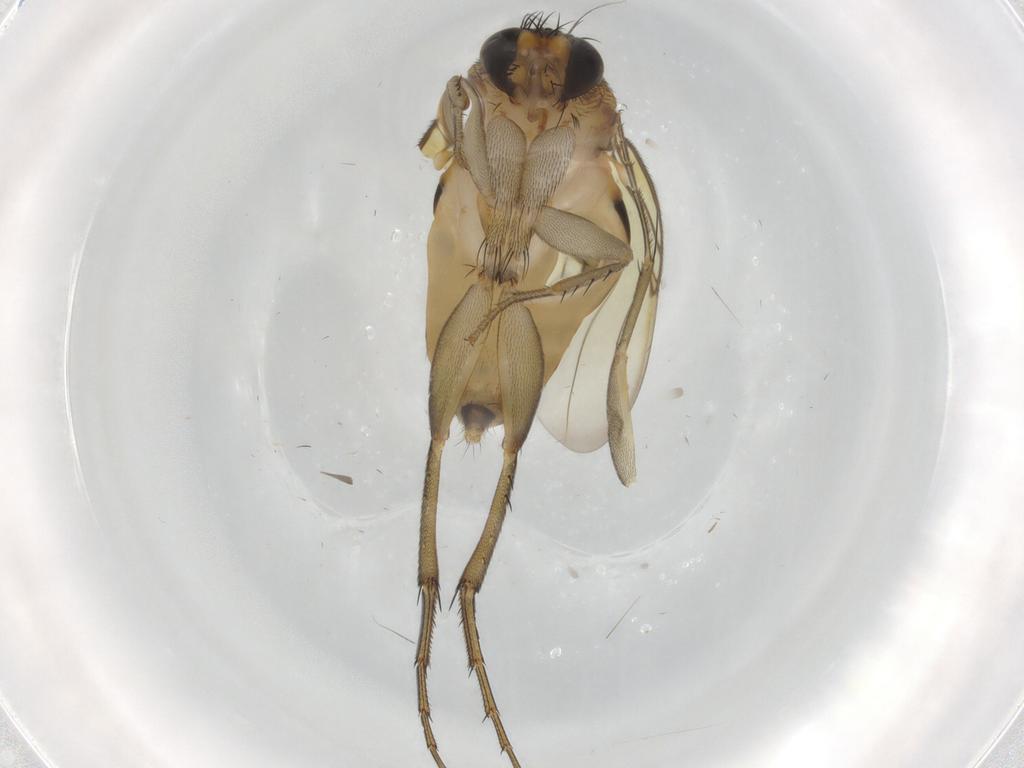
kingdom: Animalia
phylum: Arthropoda
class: Insecta
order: Diptera
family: Phoridae
